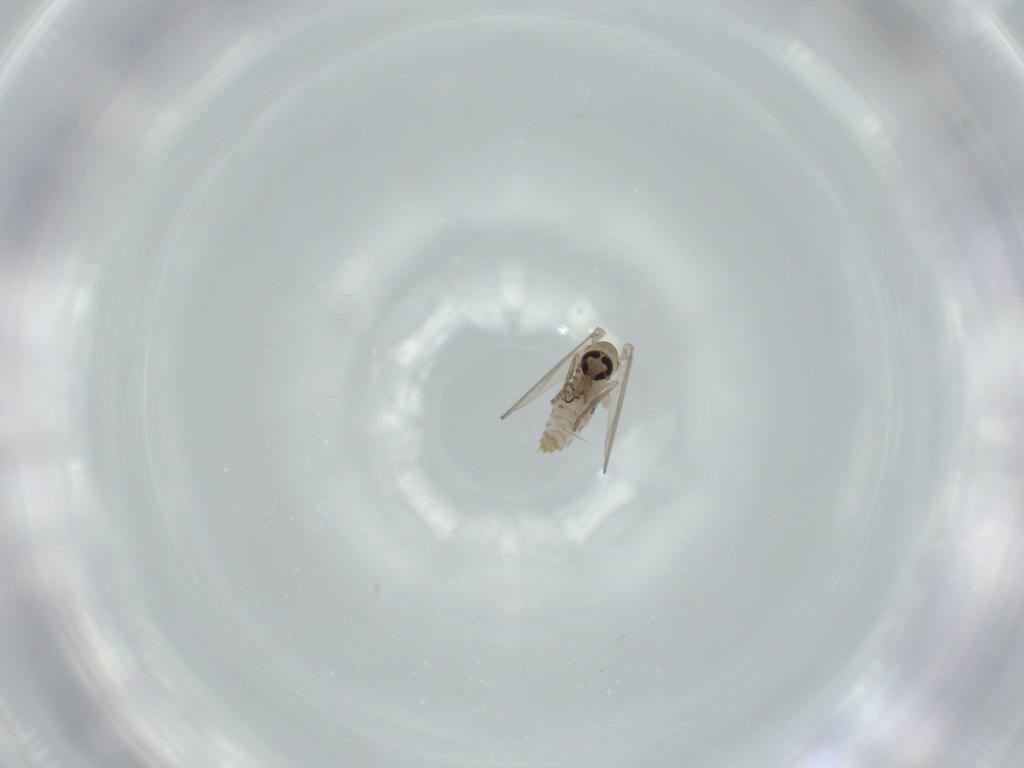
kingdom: Animalia
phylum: Arthropoda
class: Insecta
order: Diptera
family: Psychodidae
